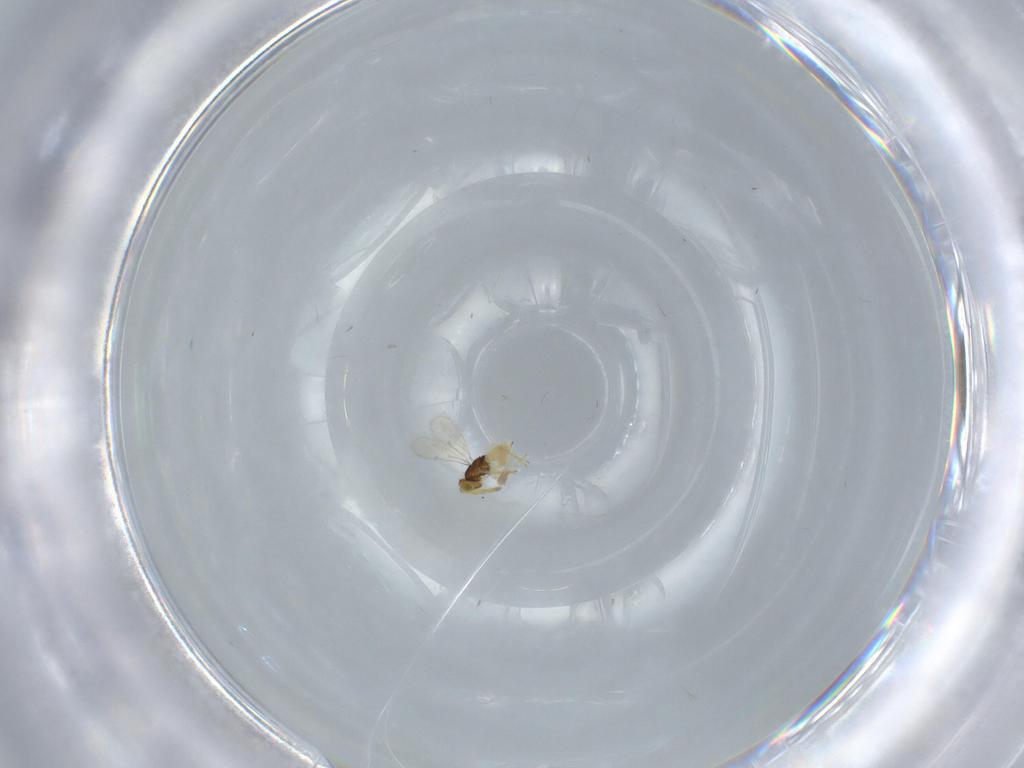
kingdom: Animalia
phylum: Arthropoda
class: Insecta
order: Hymenoptera
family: Aphelinidae
